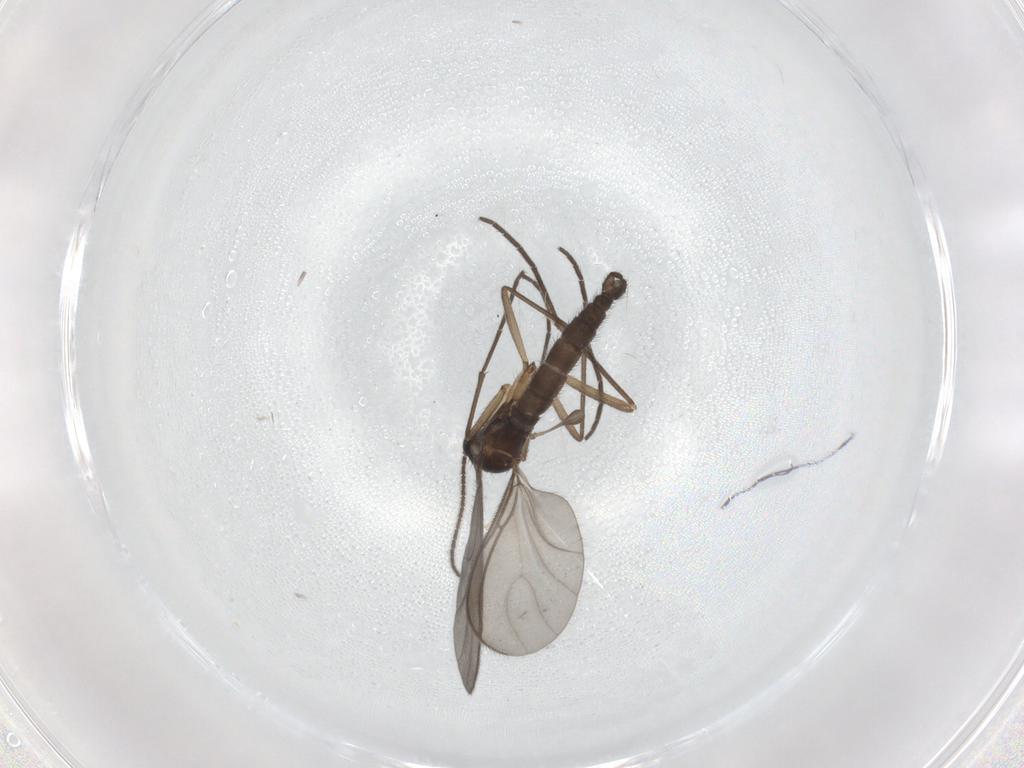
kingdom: Animalia
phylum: Arthropoda
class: Insecta
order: Diptera
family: Sciaridae
